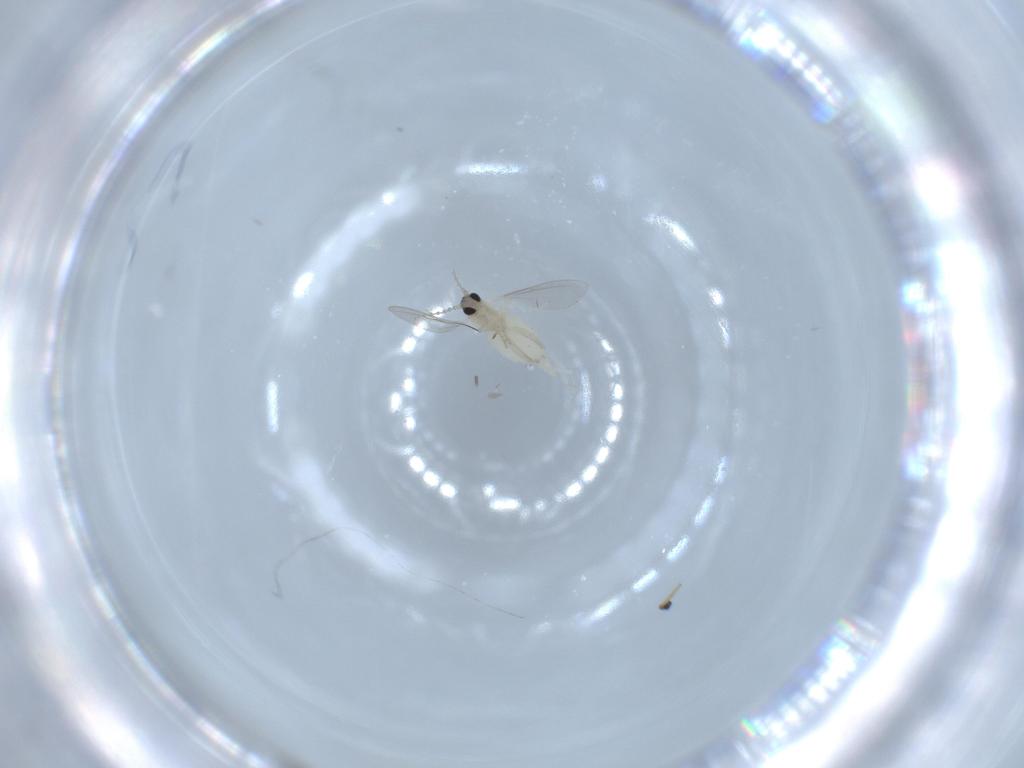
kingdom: Animalia
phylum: Arthropoda
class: Insecta
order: Diptera
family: Cecidomyiidae
